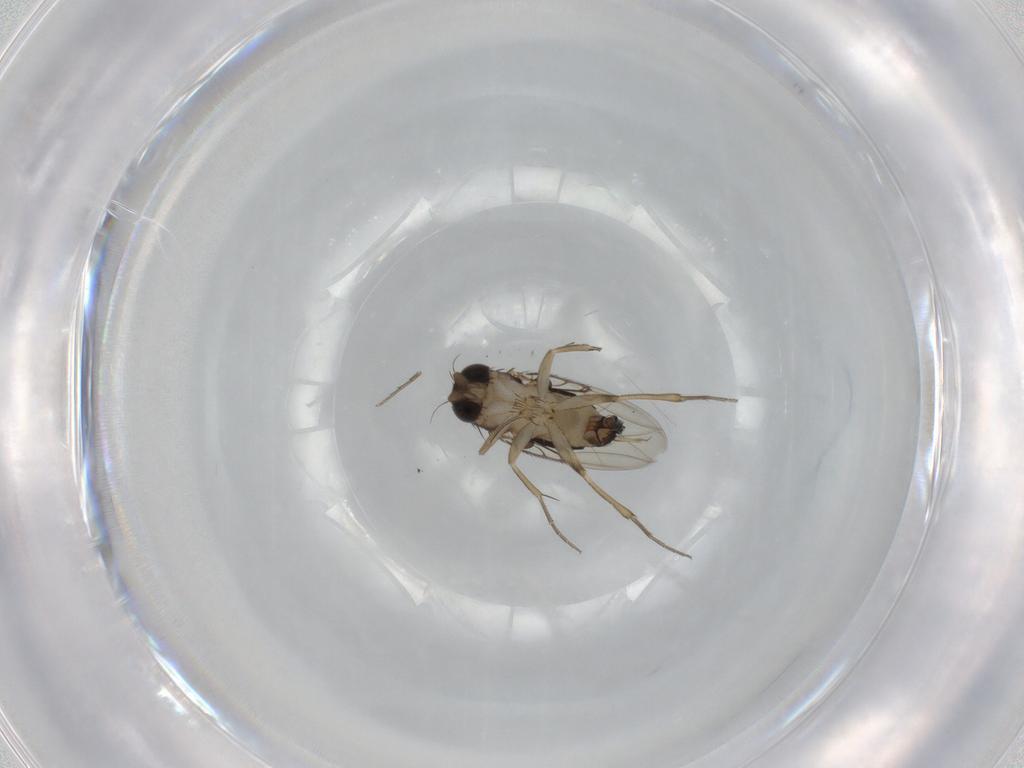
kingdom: Animalia
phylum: Arthropoda
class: Insecta
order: Diptera
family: Phoridae
